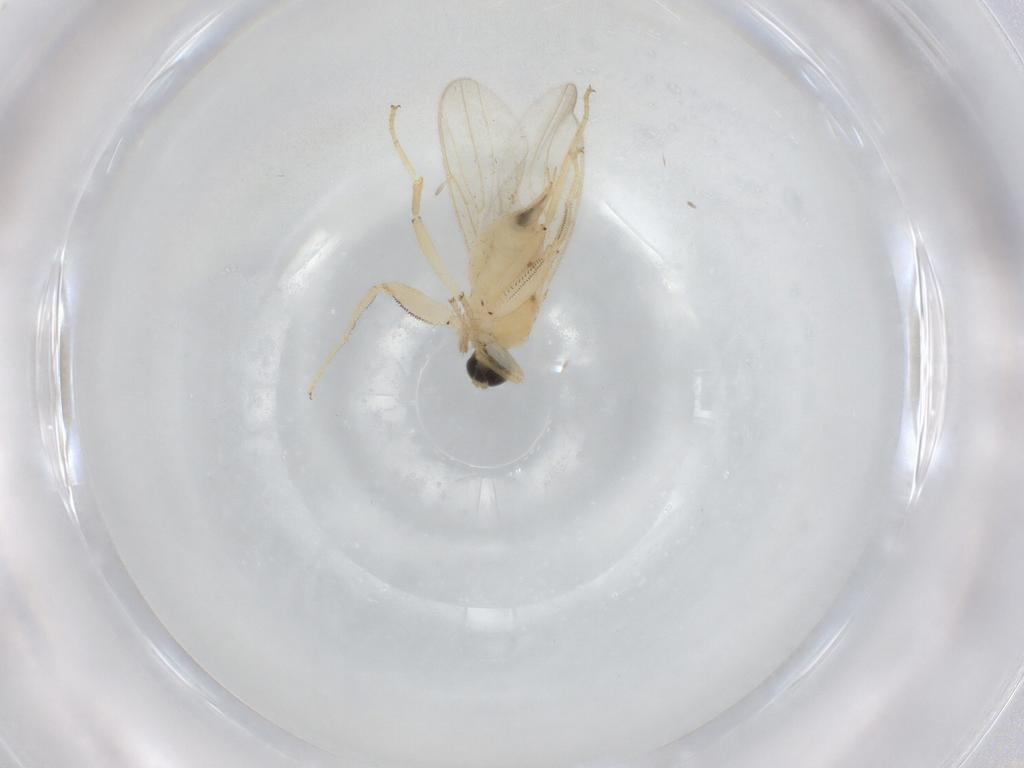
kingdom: Animalia
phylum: Arthropoda
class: Insecta
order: Diptera
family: Chironomidae
